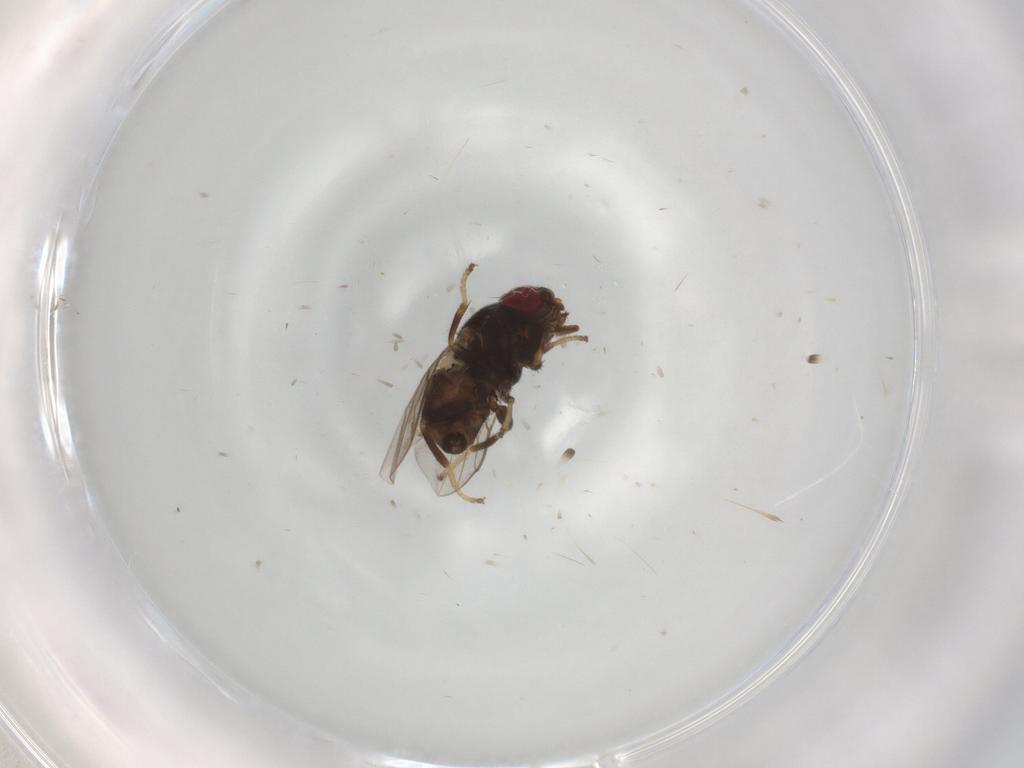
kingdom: Animalia
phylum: Arthropoda
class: Insecta
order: Diptera
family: Chloropidae
